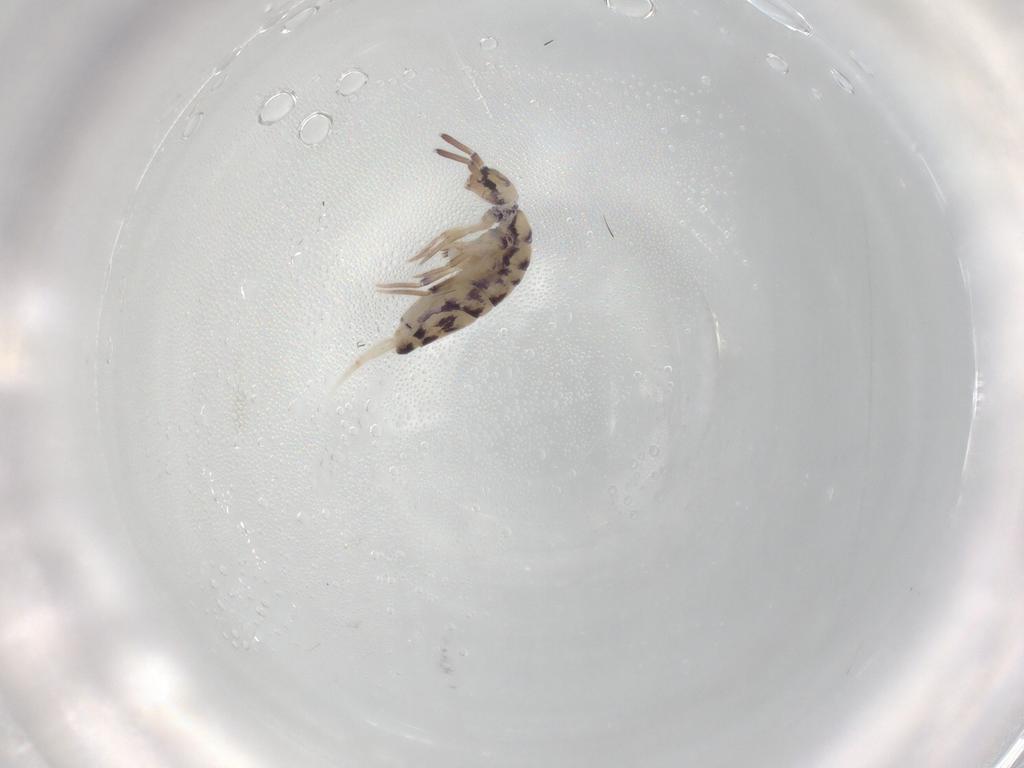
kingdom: Animalia
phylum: Arthropoda
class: Collembola
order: Entomobryomorpha
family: Entomobryidae
